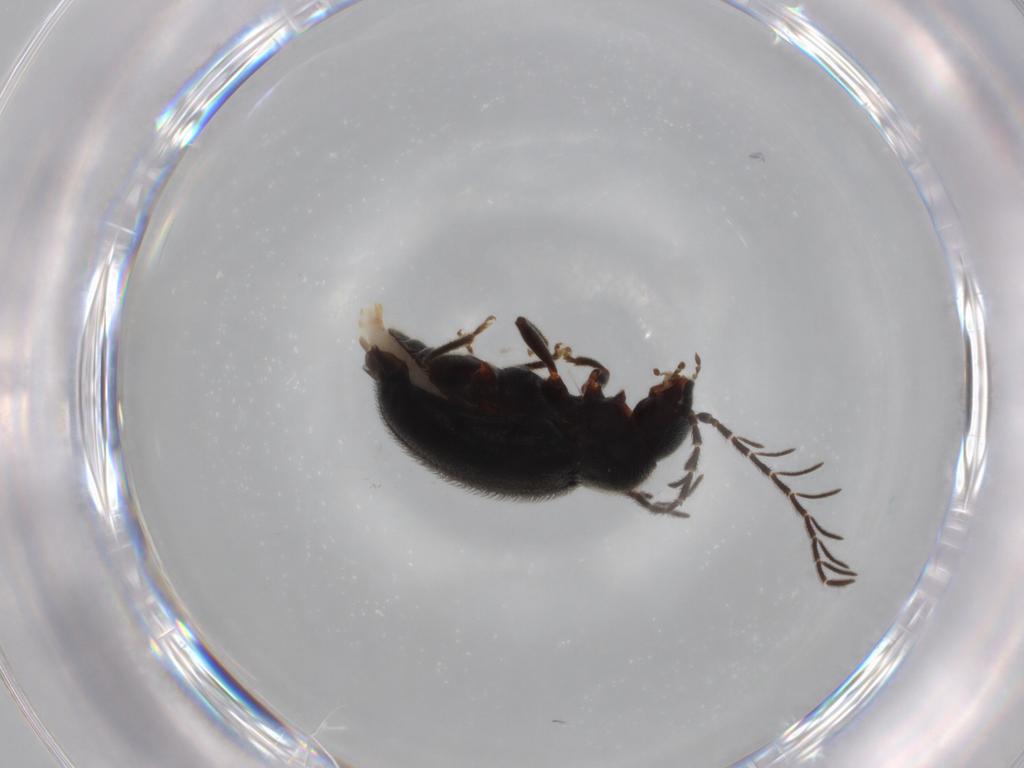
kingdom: Animalia
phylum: Arthropoda
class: Insecta
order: Coleoptera
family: Ptilodactylidae
